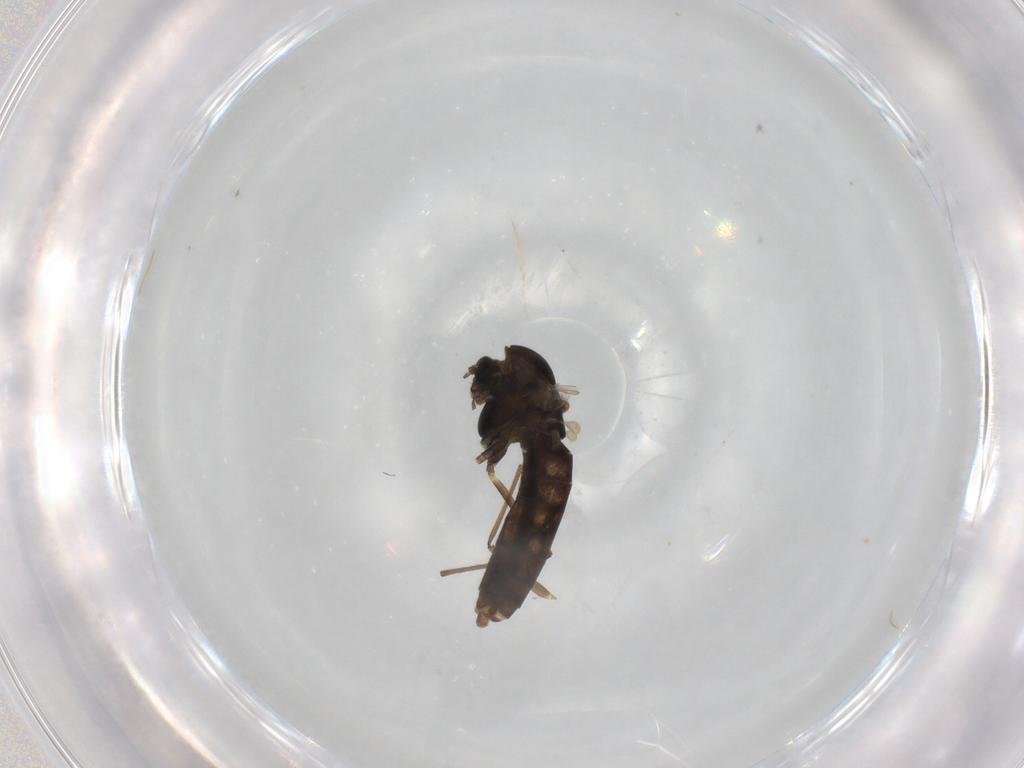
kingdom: Animalia
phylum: Arthropoda
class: Insecta
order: Diptera
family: Chironomidae
